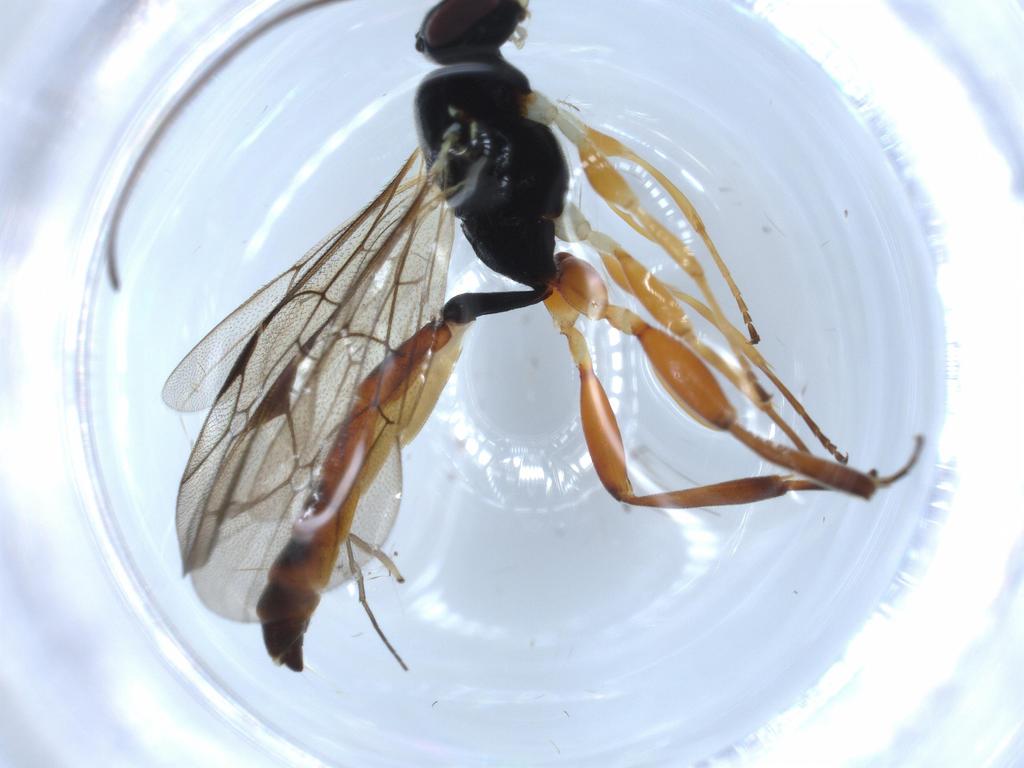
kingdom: Animalia
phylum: Arthropoda
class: Insecta
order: Hymenoptera
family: Ichneumonidae
